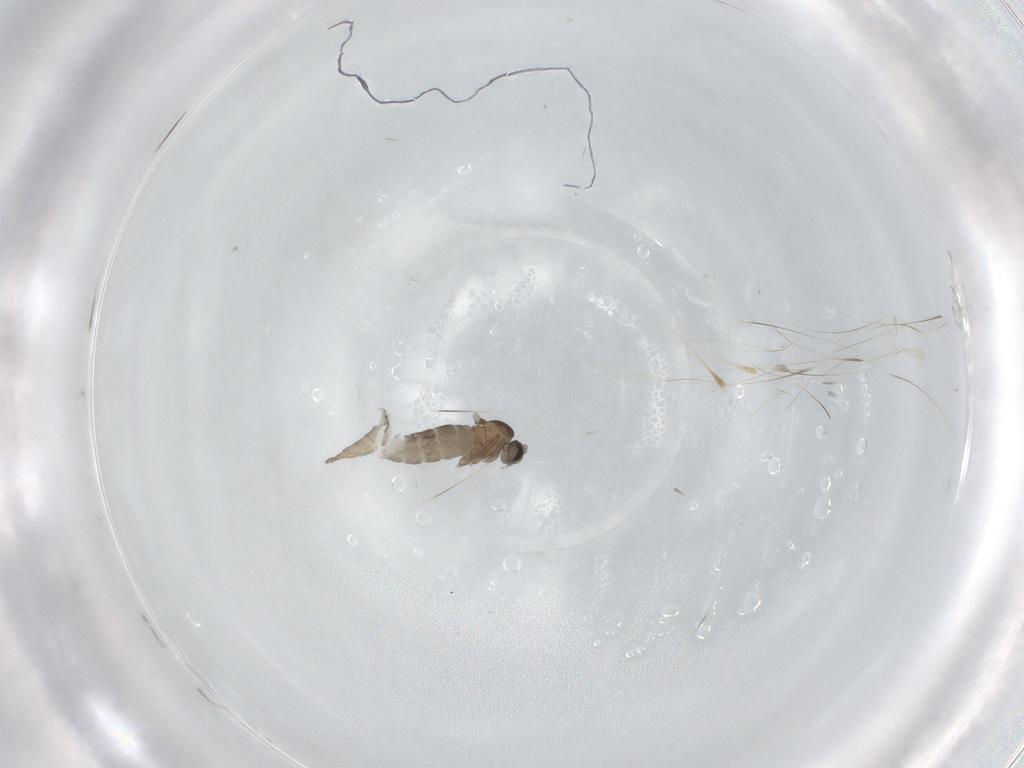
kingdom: Animalia
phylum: Arthropoda
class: Insecta
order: Diptera
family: Cecidomyiidae
